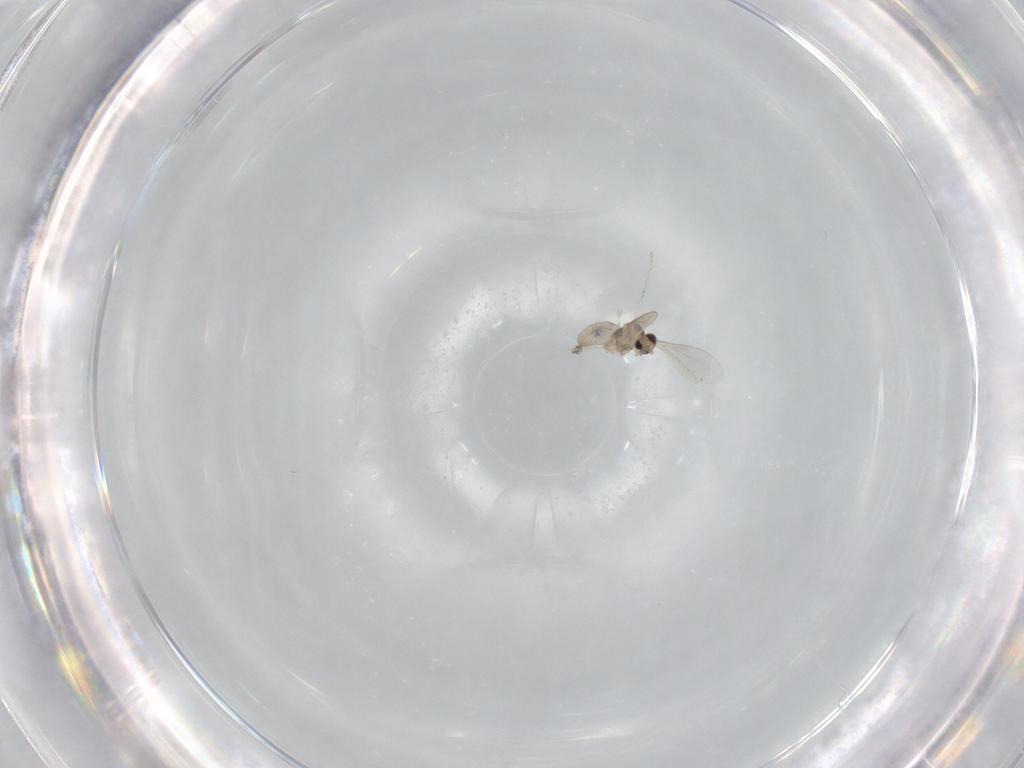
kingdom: Animalia
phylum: Arthropoda
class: Insecta
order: Diptera
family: Cecidomyiidae
